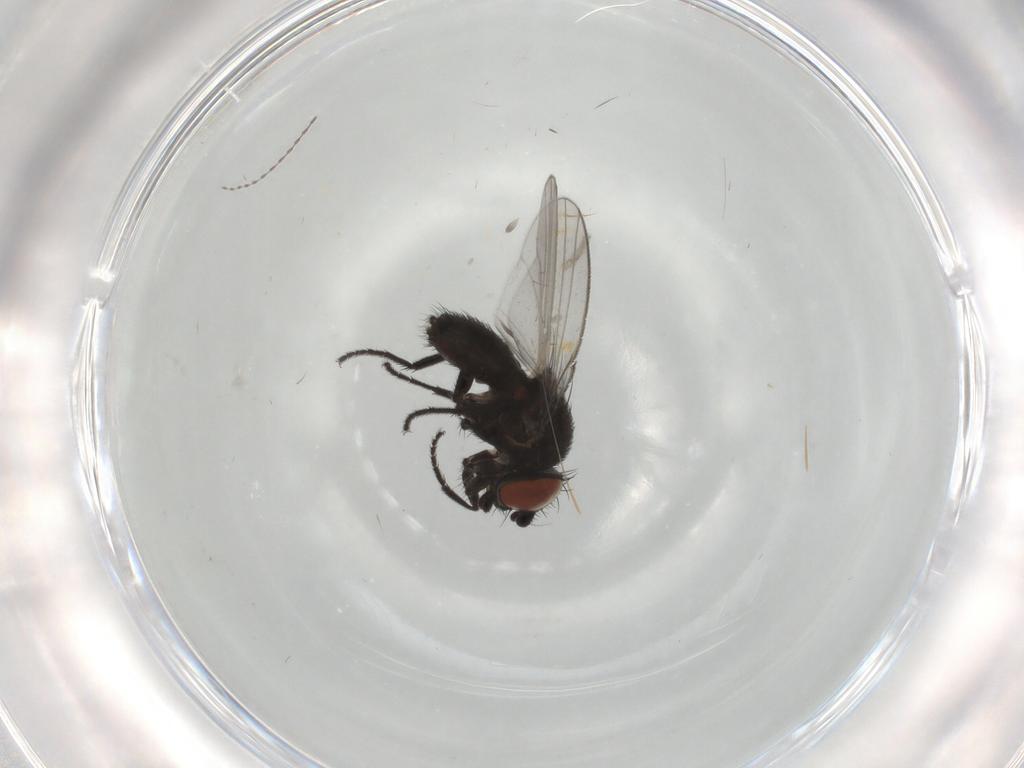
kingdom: Animalia
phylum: Arthropoda
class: Insecta
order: Diptera
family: Milichiidae
